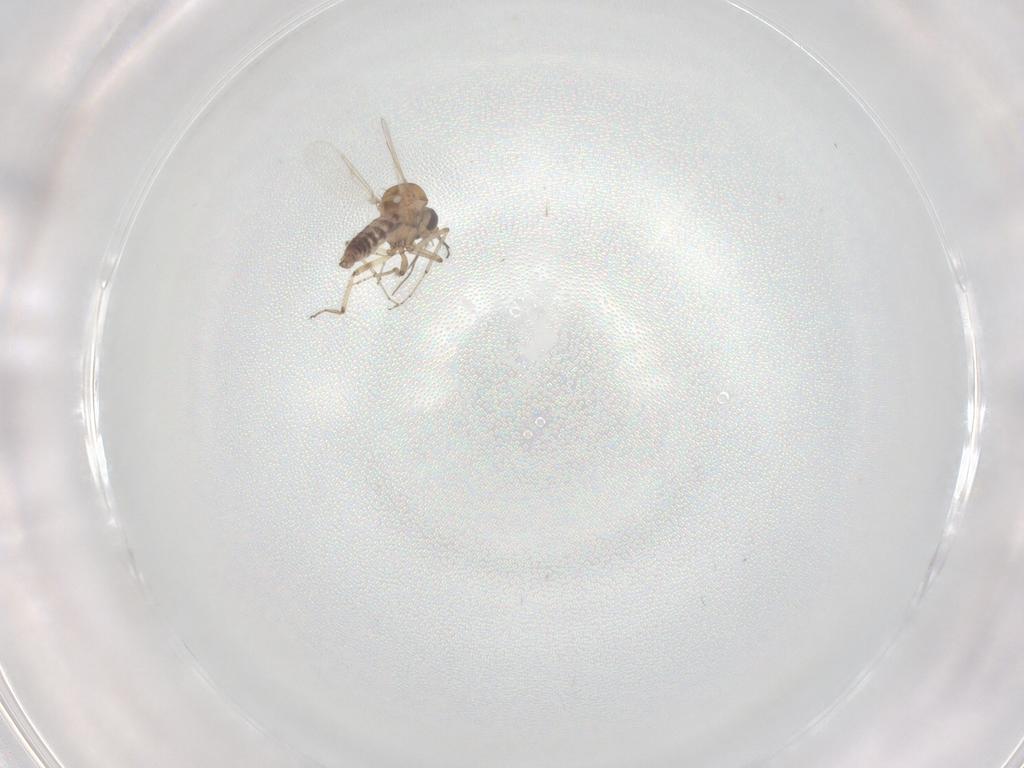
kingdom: Animalia
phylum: Arthropoda
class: Insecta
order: Diptera
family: Ceratopogonidae
